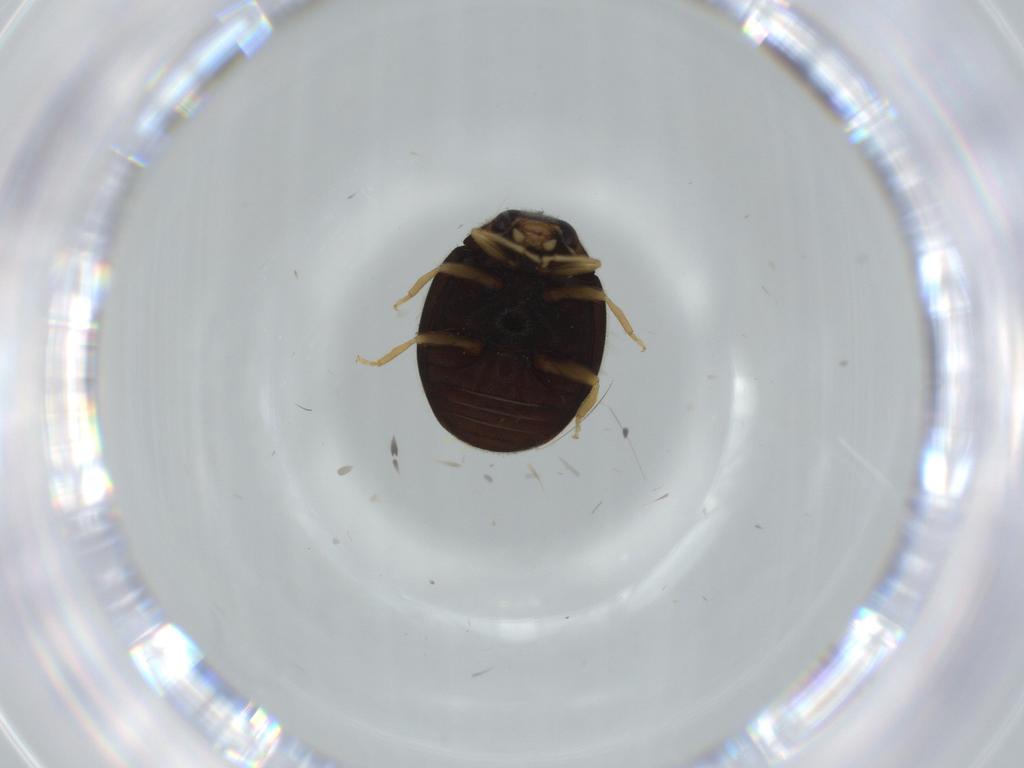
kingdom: Animalia
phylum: Arthropoda
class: Insecta
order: Coleoptera
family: Coccinellidae
